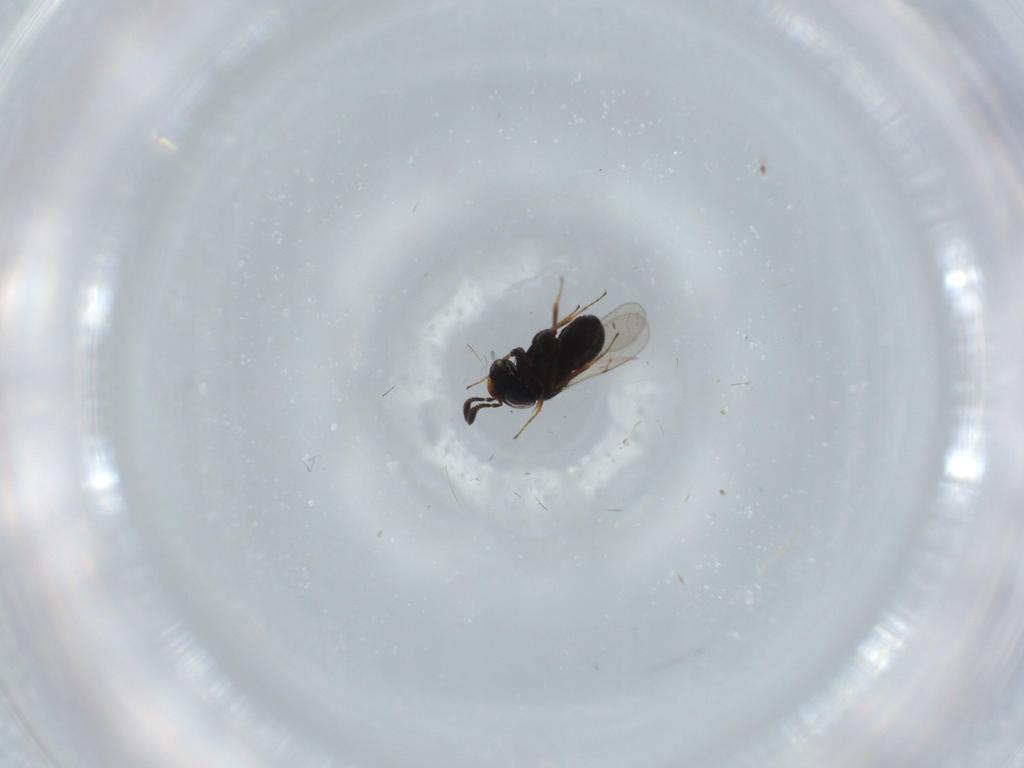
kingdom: Animalia
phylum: Arthropoda
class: Insecta
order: Hymenoptera
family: Scelionidae
